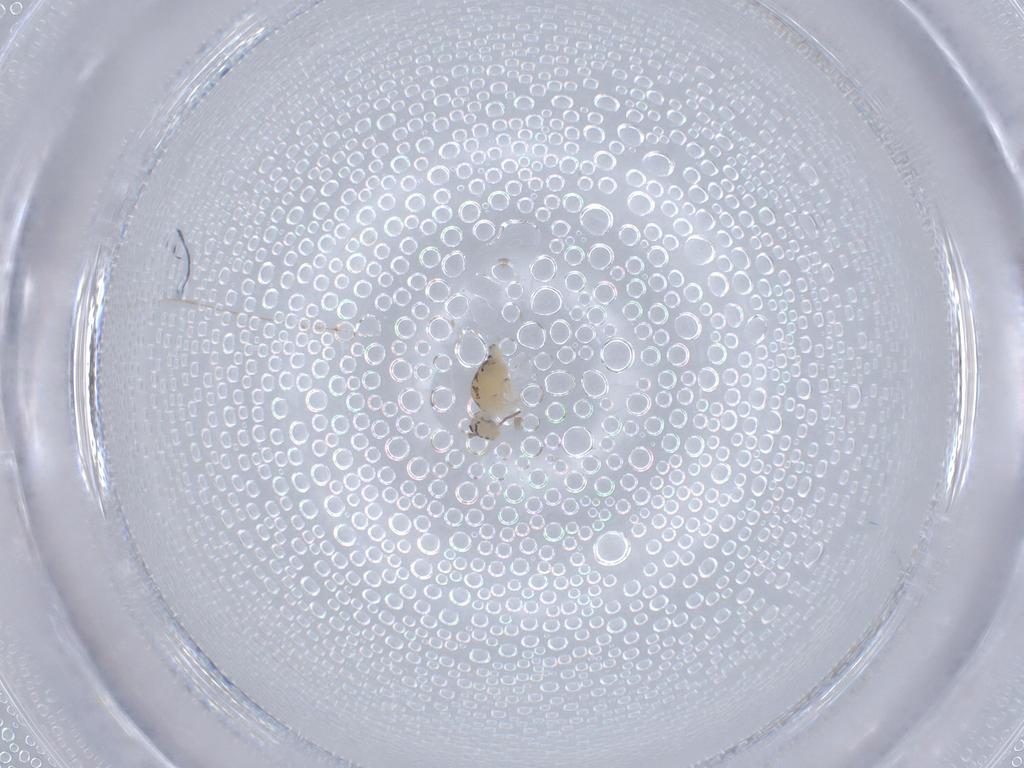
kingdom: Animalia
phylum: Arthropoda
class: Collembola
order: Symphypleona
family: Bourletiellidae
